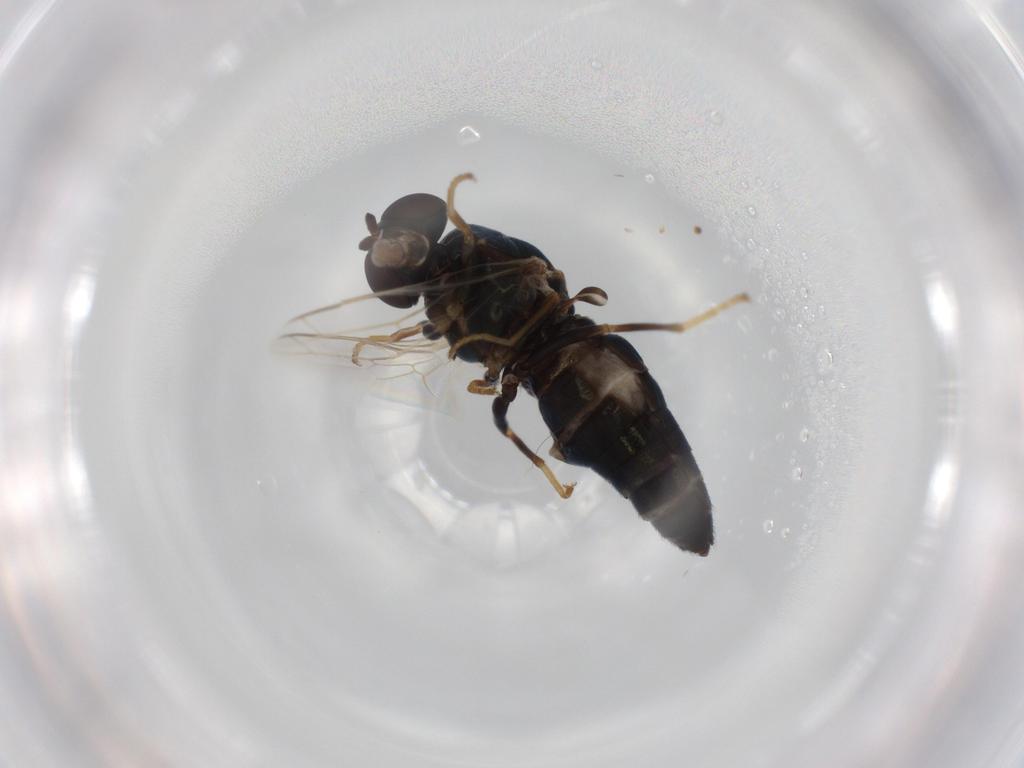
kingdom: Animalia
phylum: Arthropoda
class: Insecta
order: Diptera
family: Scenopinidae
